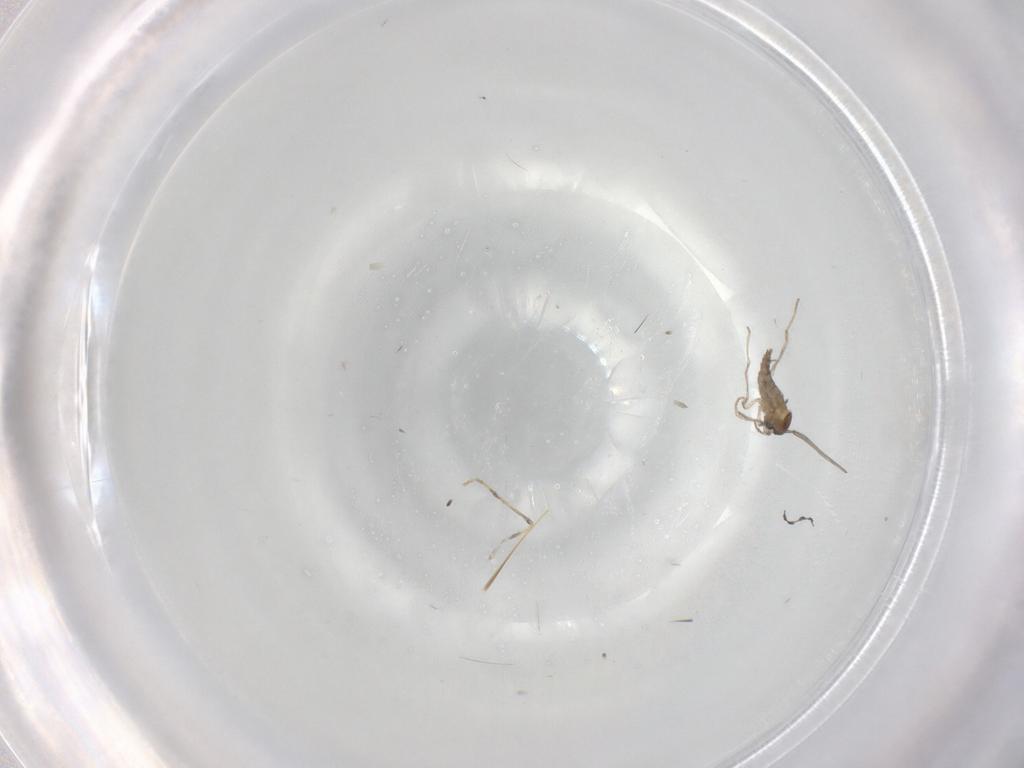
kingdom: Animalia
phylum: Arthropoda
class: Insecta
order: Diptera
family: Cecidomyiidae
